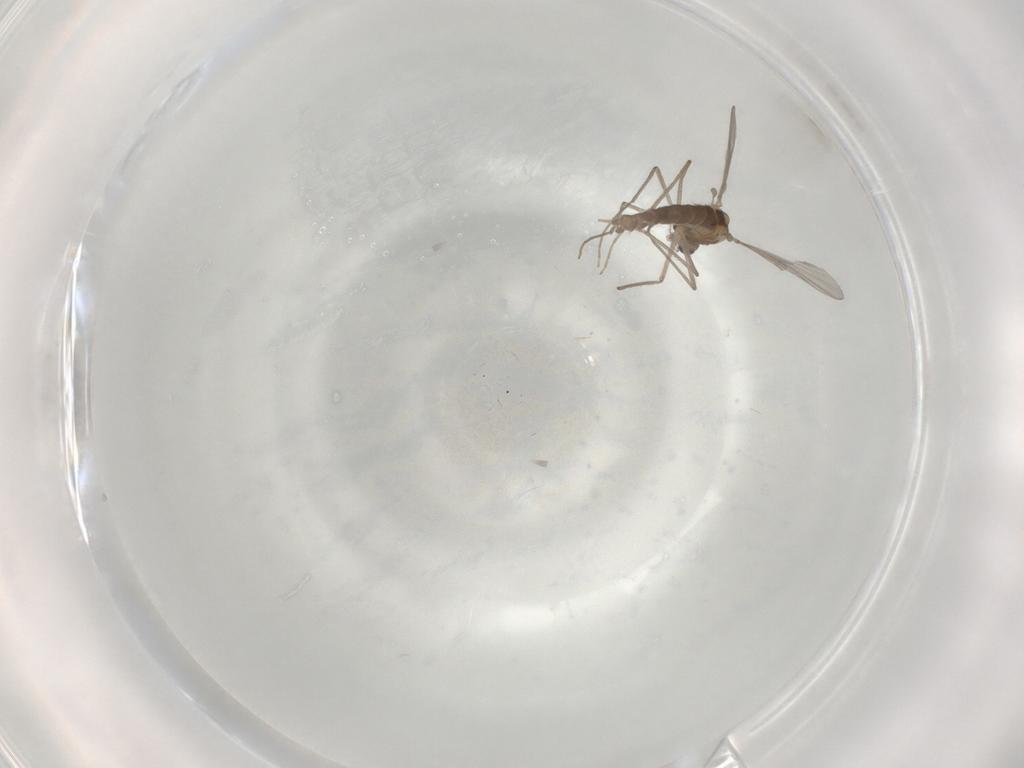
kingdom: Animalia
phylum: Arthropoda
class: Insecta
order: Diptera
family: Chironomidae
